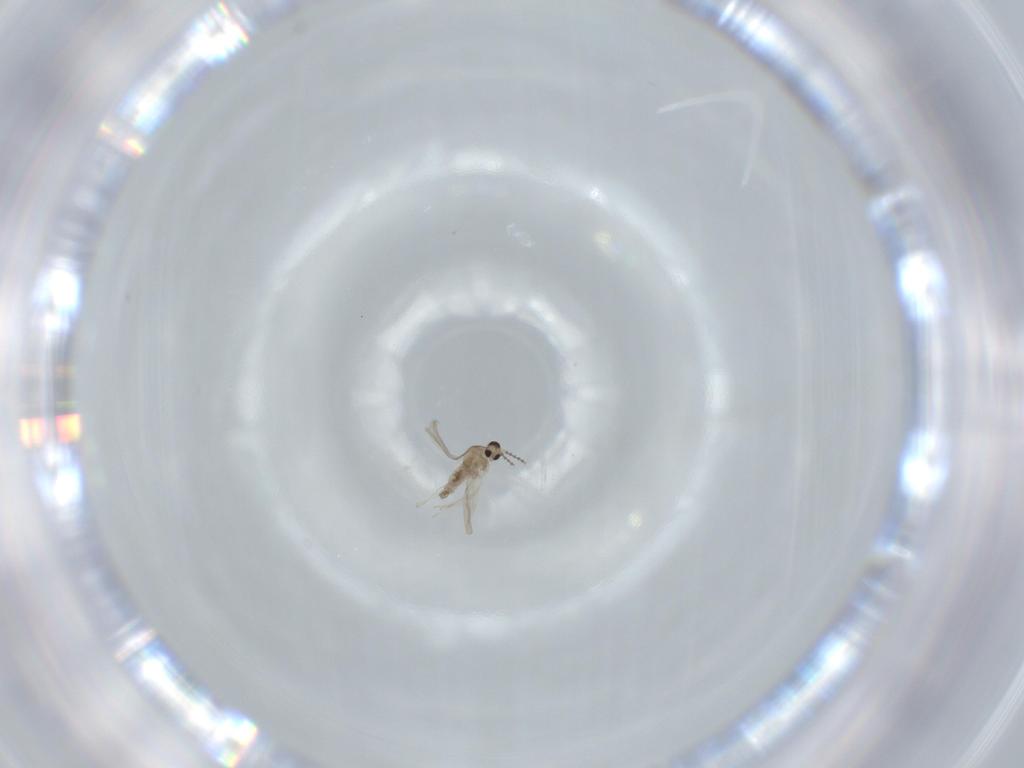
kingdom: Animalia
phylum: Arthropoda
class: Insecta
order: Diptera
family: Cecidomyiidae
